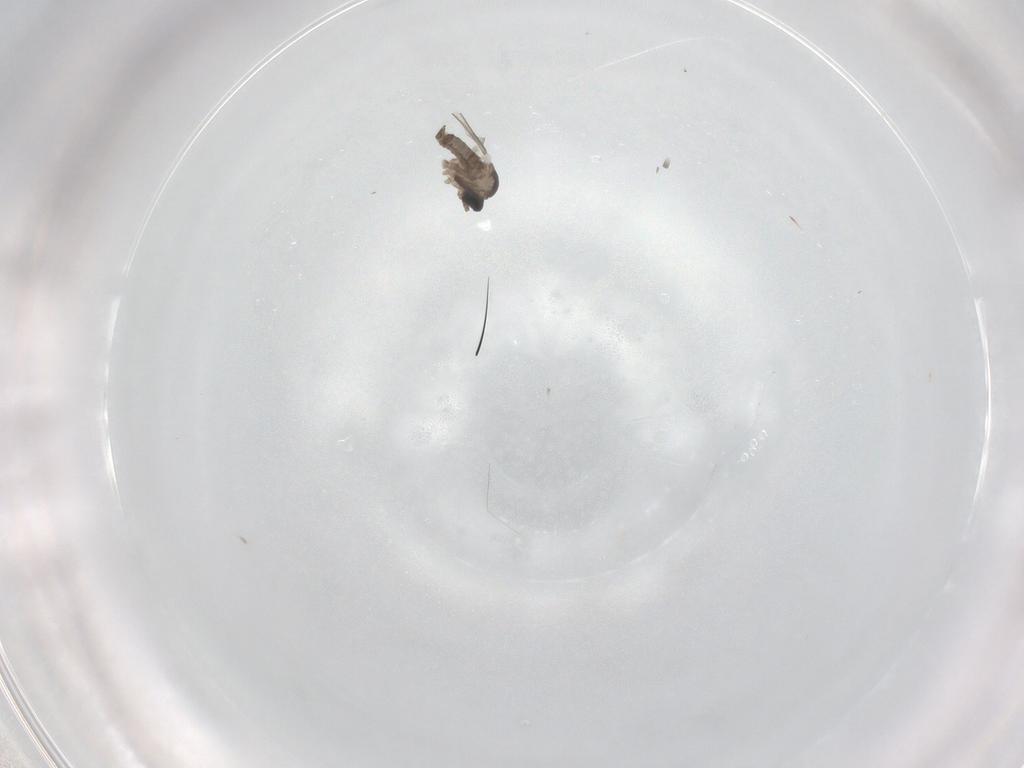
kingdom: Animalia
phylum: Arthropoda
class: Insecta
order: Diptera
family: Cecidomyiidae
